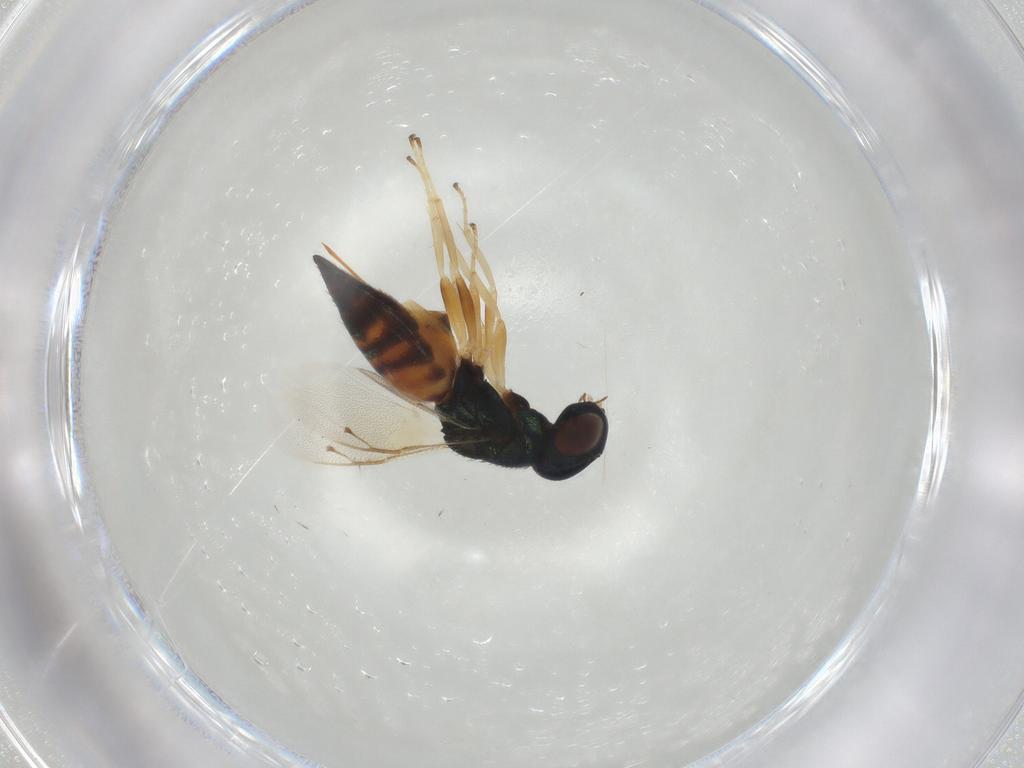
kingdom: Animalia
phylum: Arthropoda
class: Insecta
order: Hymenoptera
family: Pteromalidae
